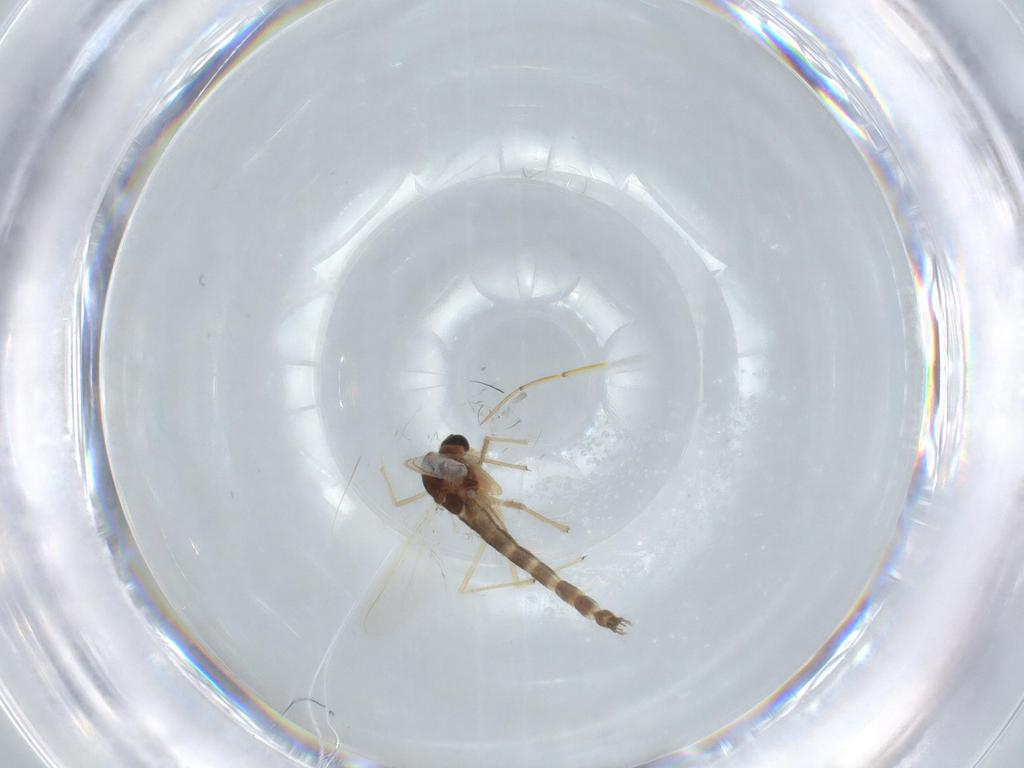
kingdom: Animalia
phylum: Arthropoda
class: Insecta
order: Diptera
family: Chironomidae
